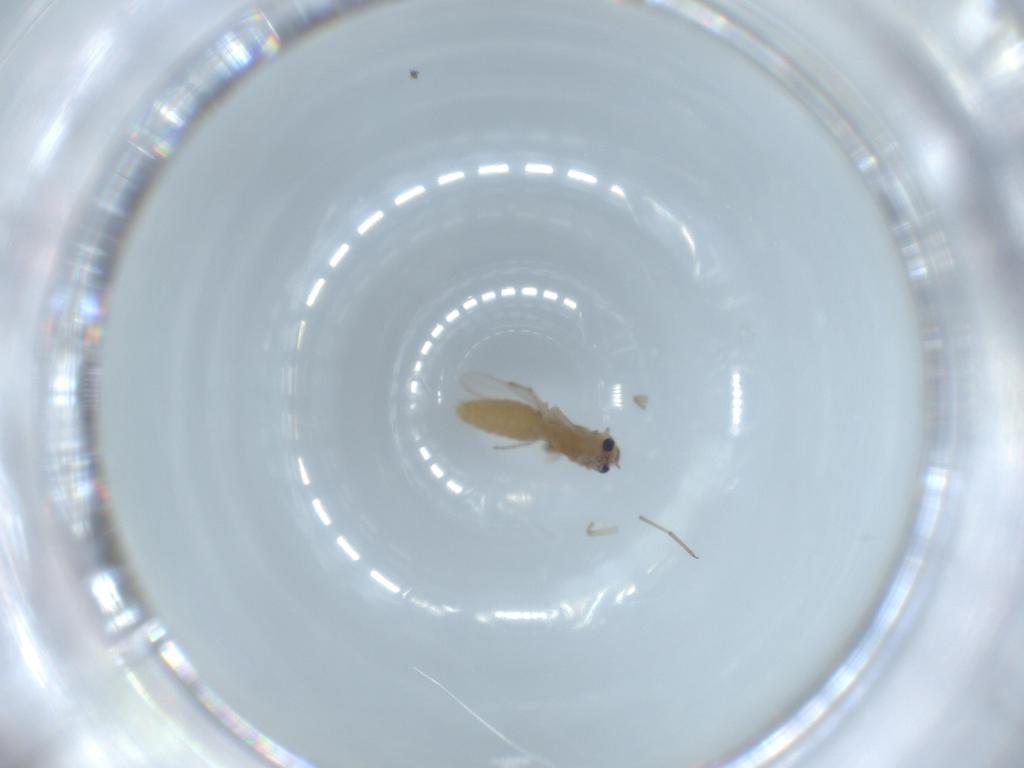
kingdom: Animalia
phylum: Arthropoda
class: Insecta
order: Diptera
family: Chironomidae
